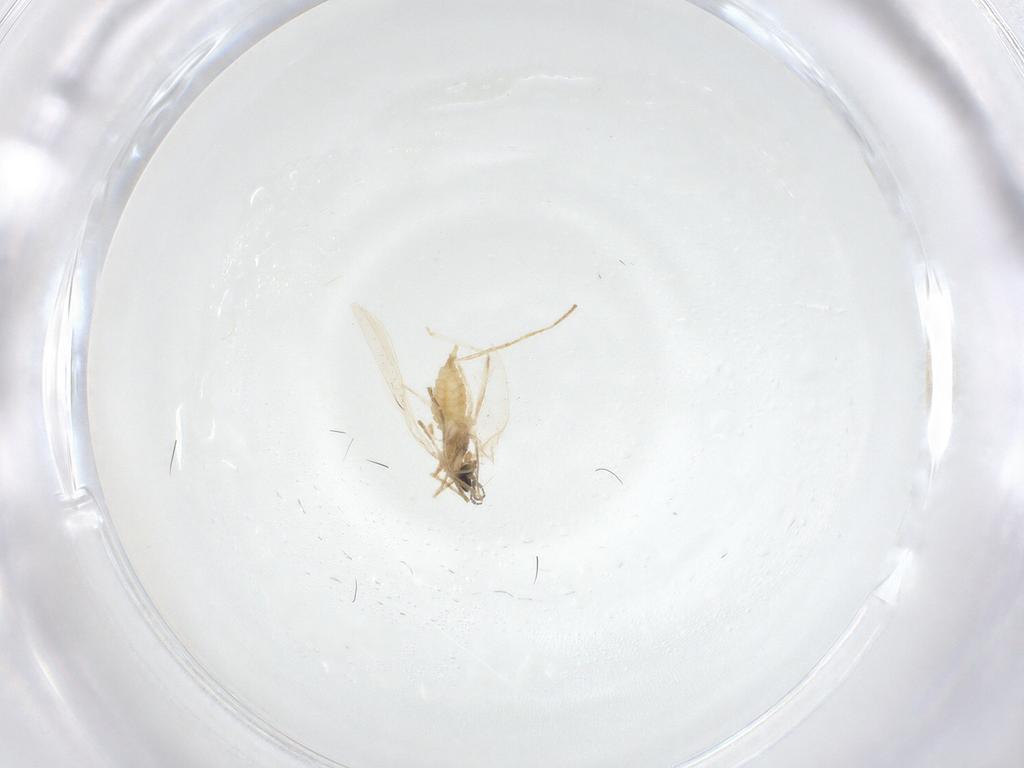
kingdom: Animalia
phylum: Arthropoda
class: Insecta
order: Diptera
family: Cecidomyiidae
